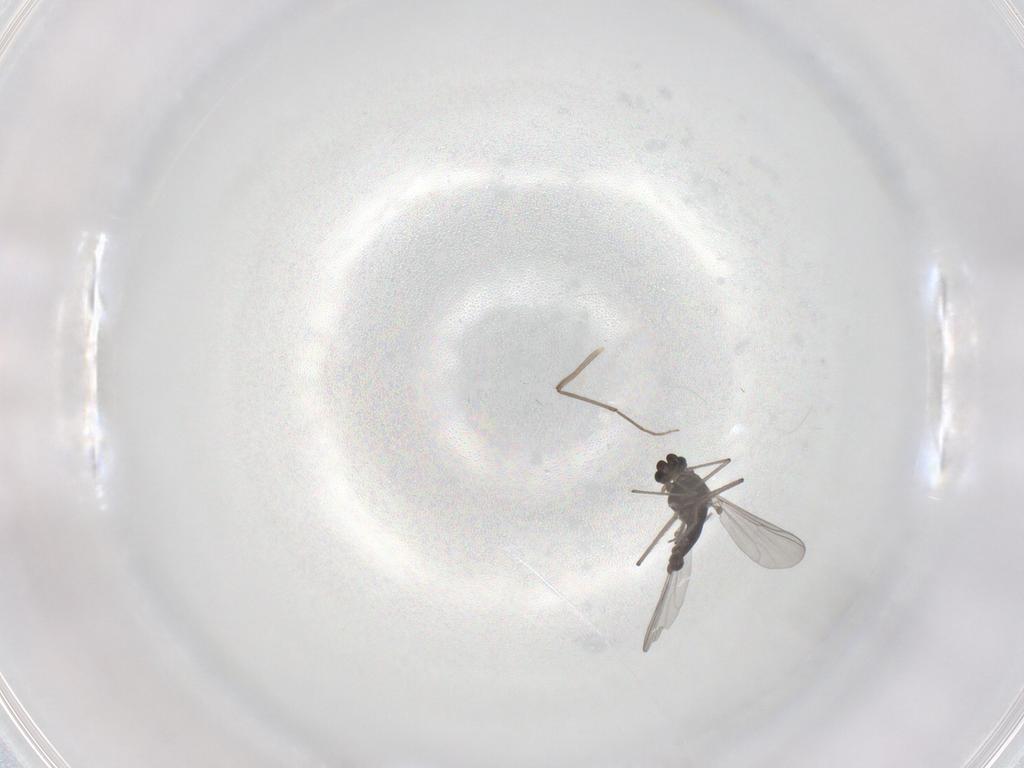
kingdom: Animalia
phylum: Arthropoda
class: Insecta
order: Diptera
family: Chironomidae
